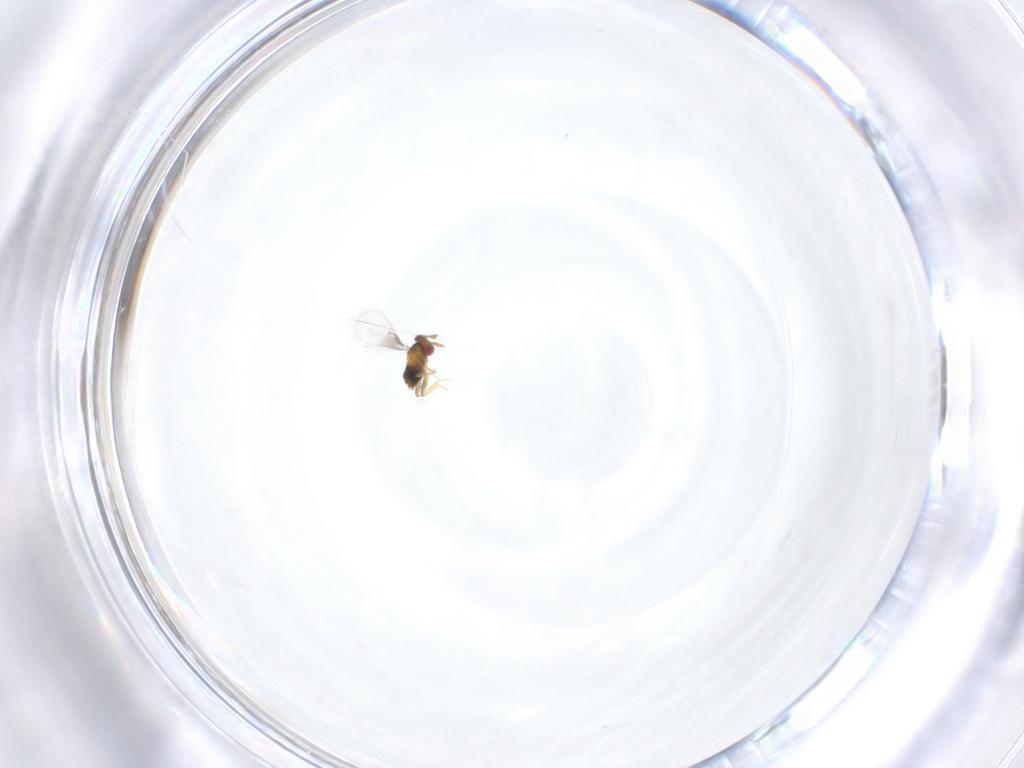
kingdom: Animalia
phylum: Arthropoda
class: Insecta
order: Hymenoptera
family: Trichogrammatidae
